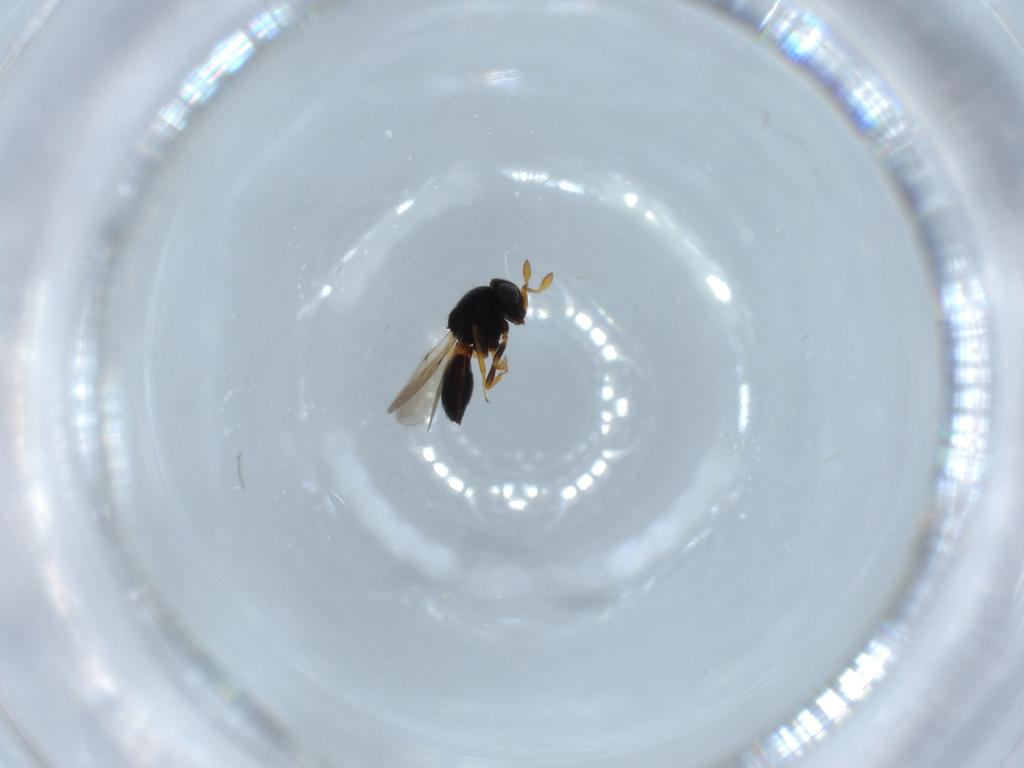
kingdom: Animalia
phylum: Arthropoda
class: Insecta
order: Hymenoptera
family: Scelionidae
